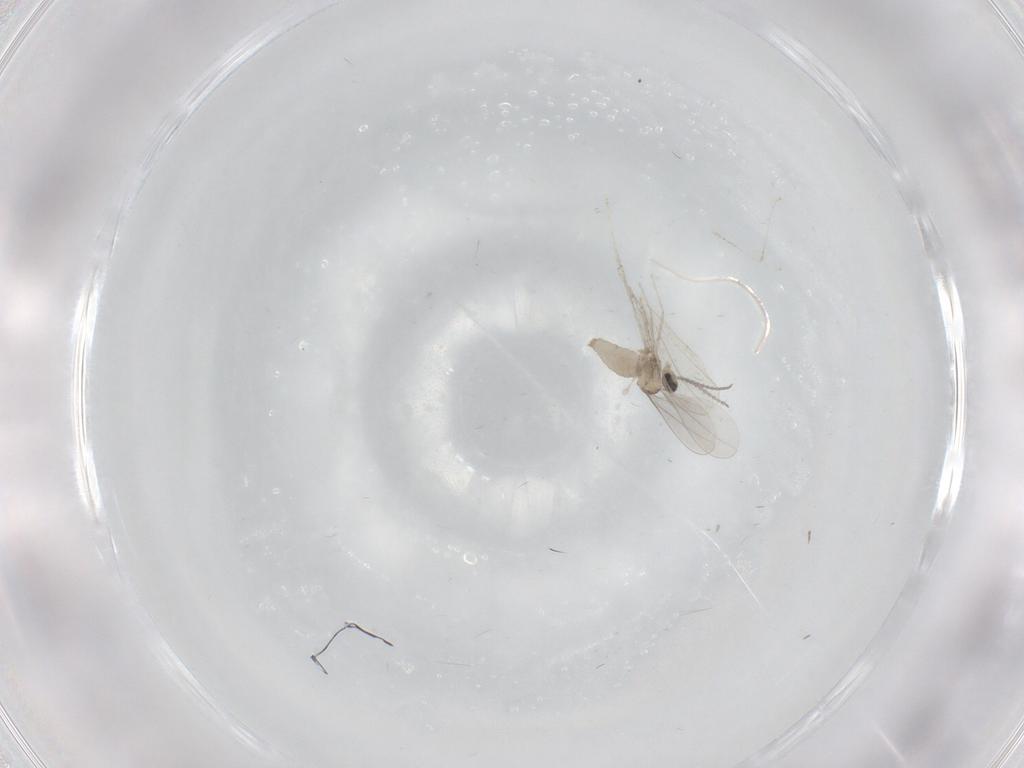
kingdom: Animalia
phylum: Arthropoda
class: Insecta
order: Diptera
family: Cecidomyiidae
